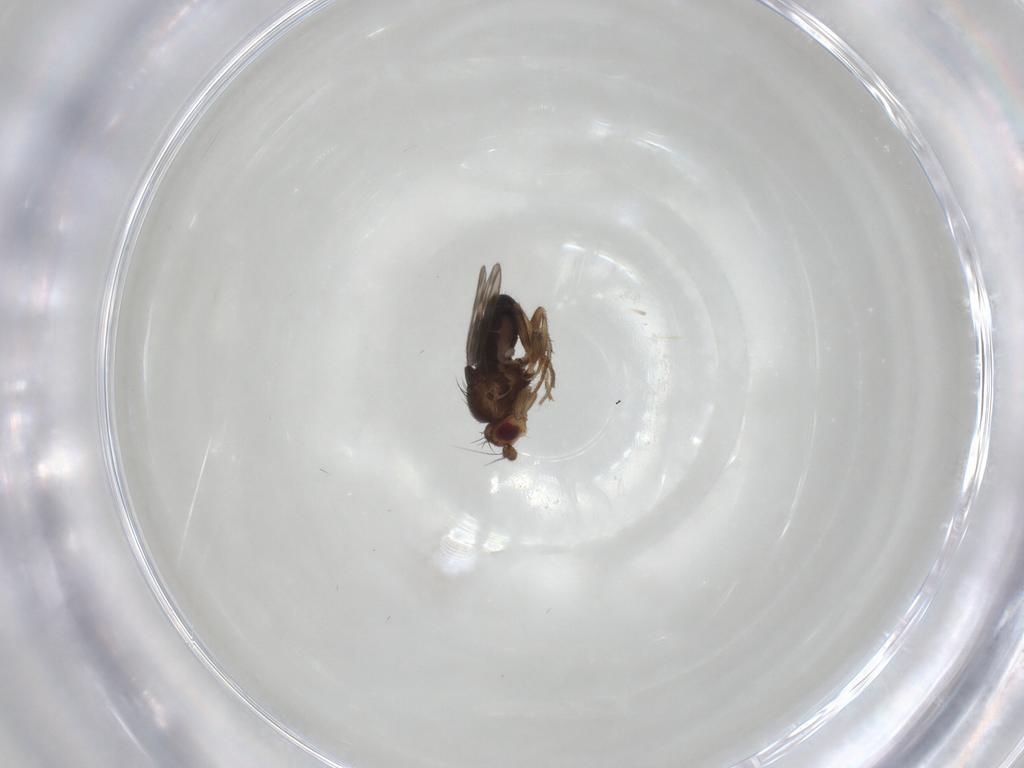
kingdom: Animalia
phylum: Arthropoda
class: Insecta
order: Diptera
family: Sphaeroceridae
